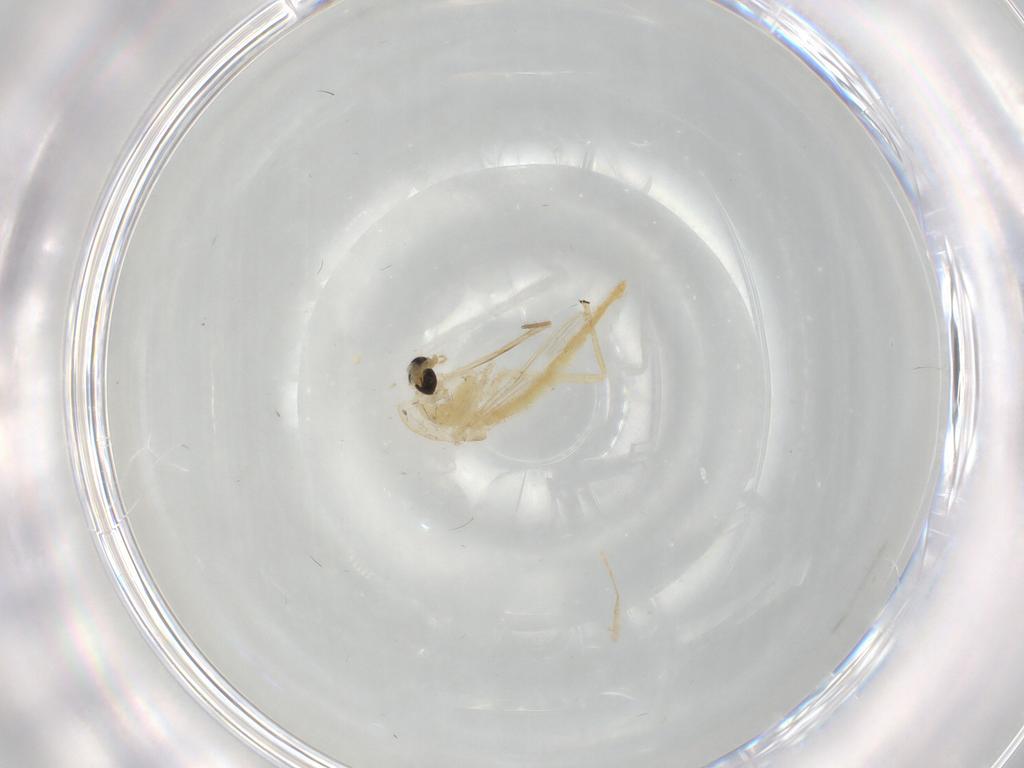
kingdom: Animalia
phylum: Arthropoda
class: Insecta
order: Diptera
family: Chironomidae
